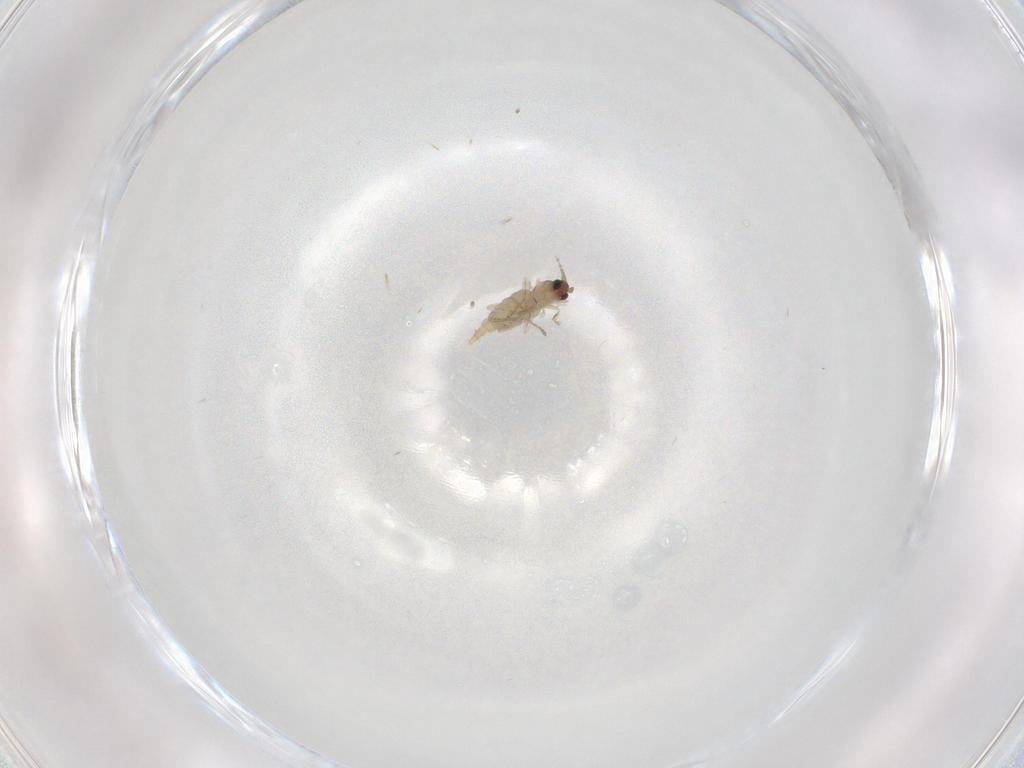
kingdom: Animalia
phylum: Arthropoda
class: Insecta
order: Diptera
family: Cecidomyiidae
